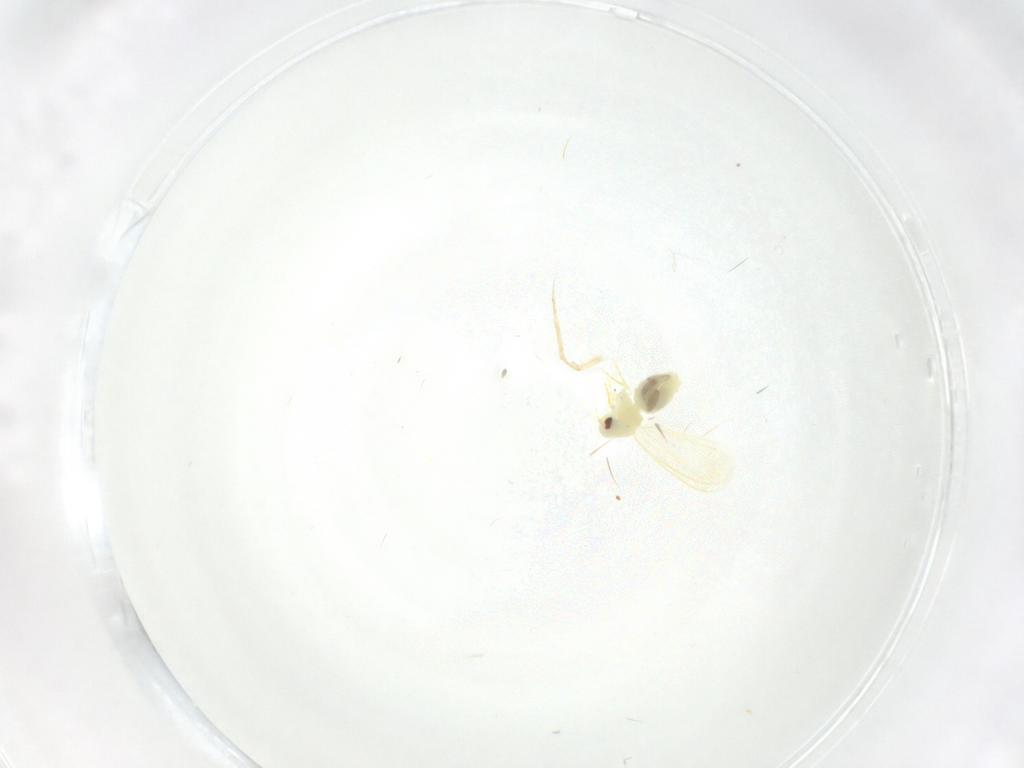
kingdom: Animalia
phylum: Arthropoda
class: Insecta
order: Hemiptera
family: Aleyrodidae
